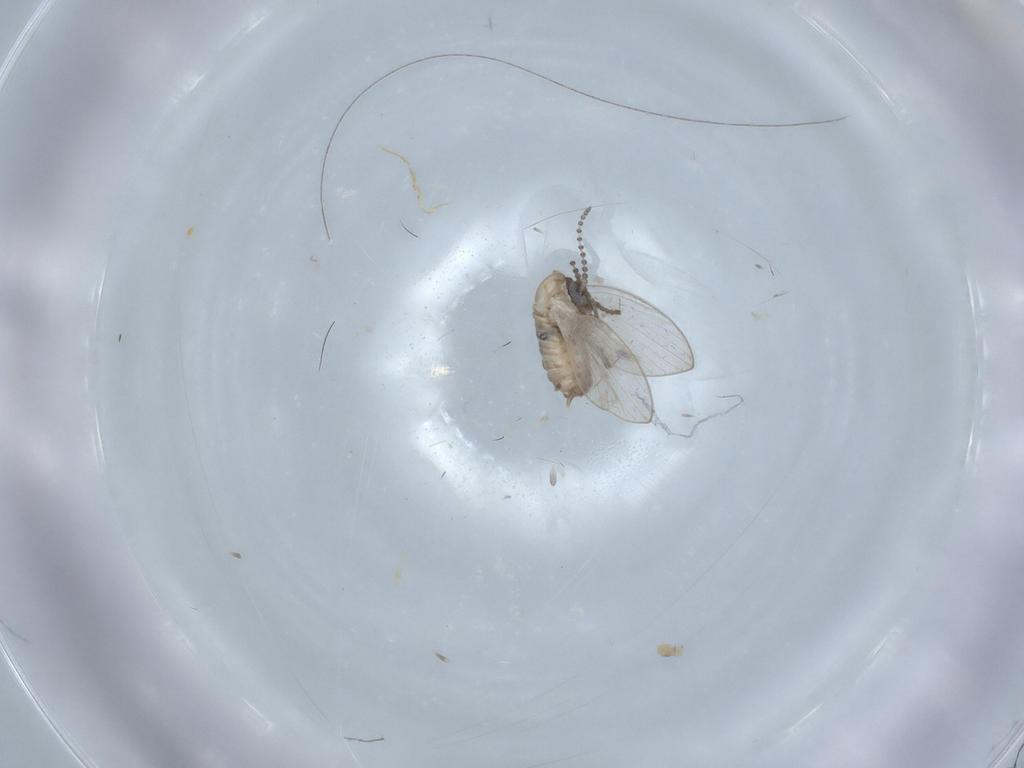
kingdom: Animalia
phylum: Arthropoda
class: Insecta
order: Diptera
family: Psychodidae
